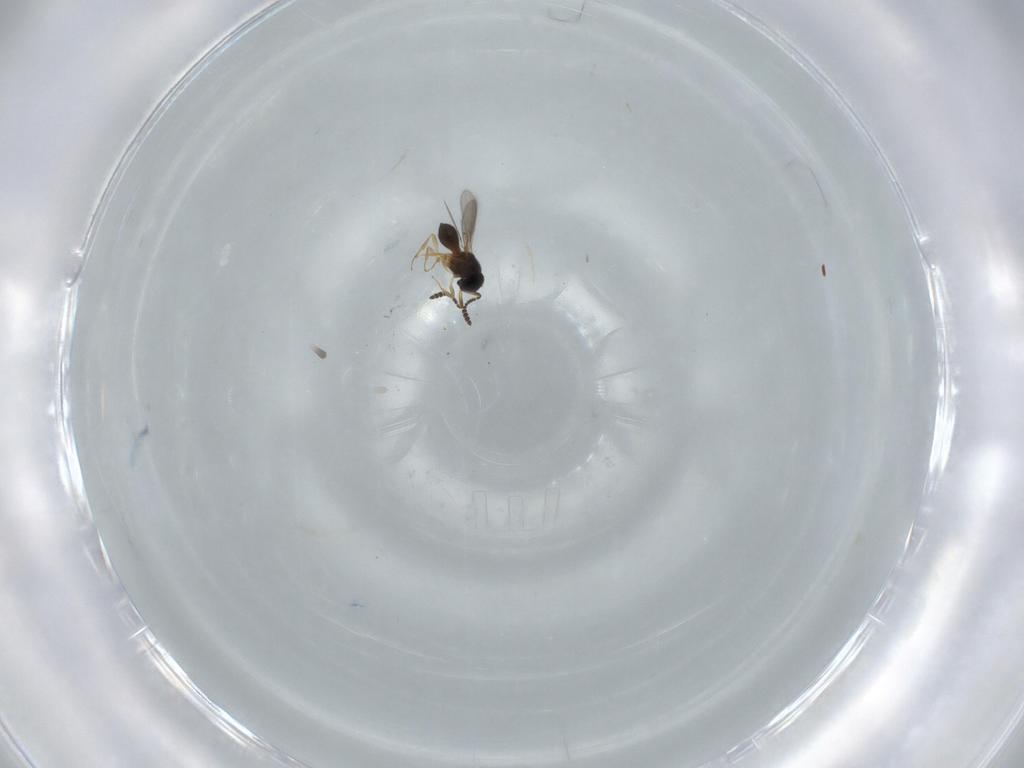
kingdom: Animalia
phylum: Arthropoda
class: Insecta
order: Hymenoptera
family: Scelionidae
